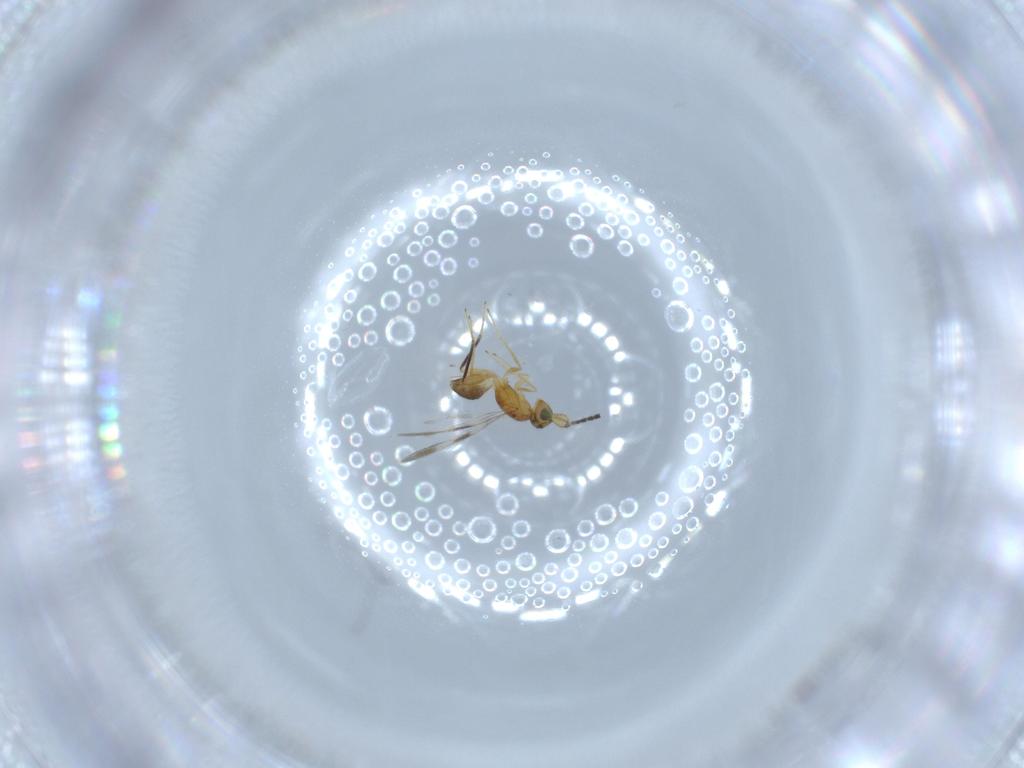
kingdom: Animalia
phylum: Arthropoda
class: Insecta
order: Hymenoptera
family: Mymaridae
